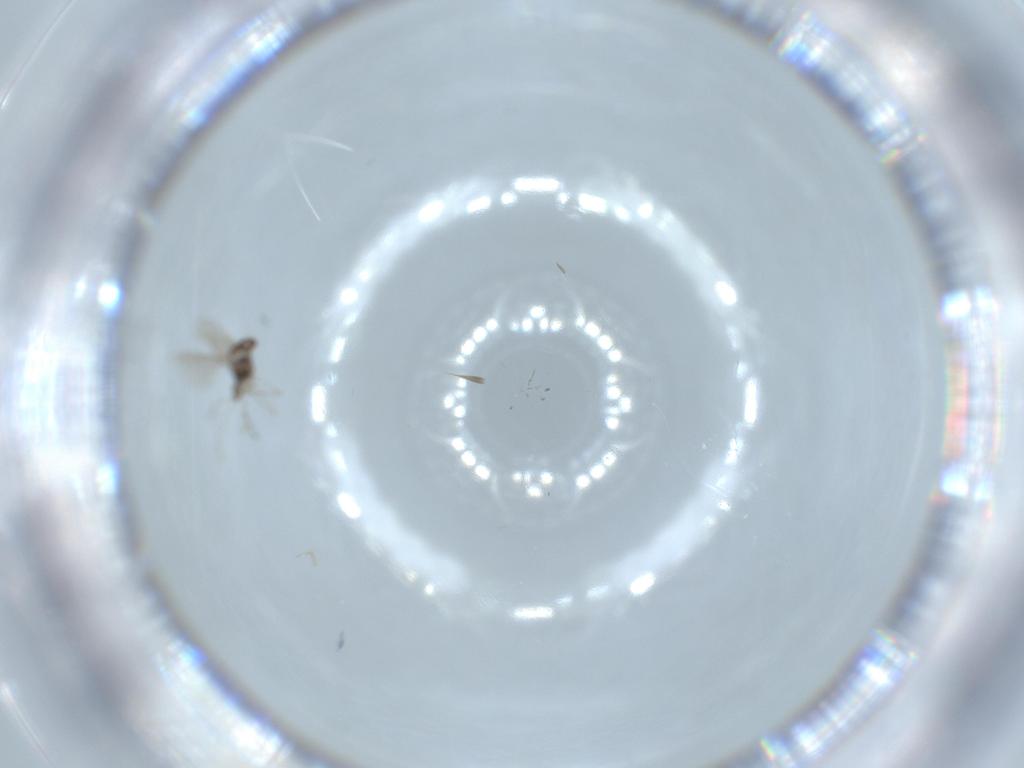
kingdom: Animalia
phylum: Arthropoda
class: Insecta
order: Diptera
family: Cecidomyiidae
